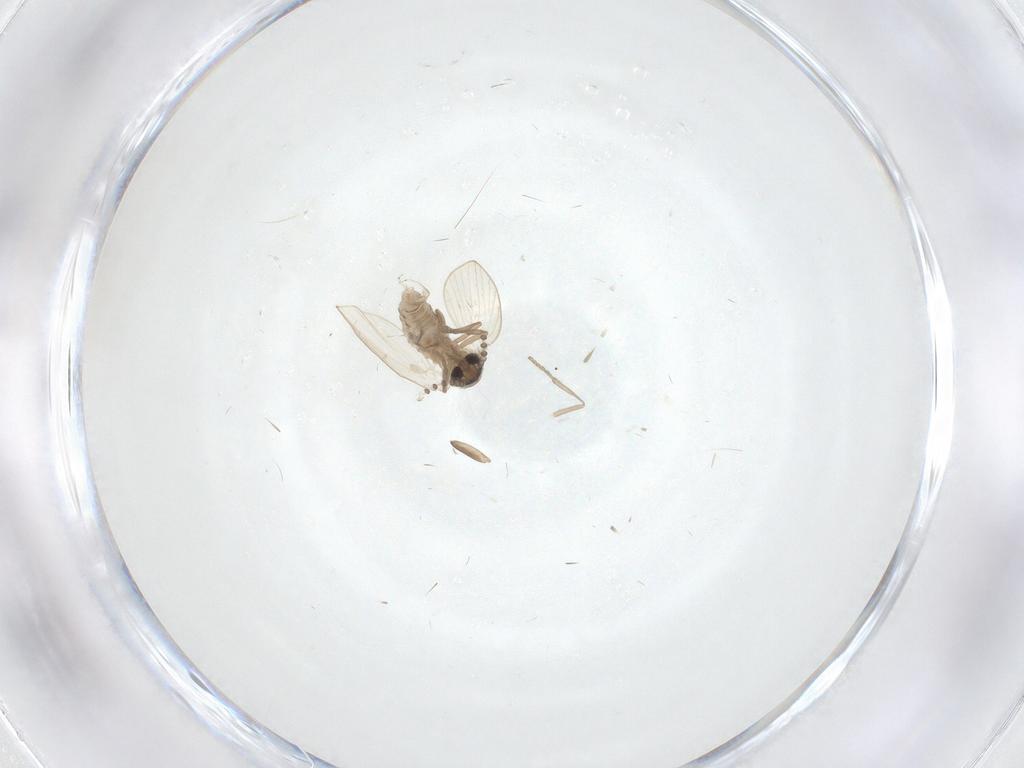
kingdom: Animalia
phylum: Arthropoda
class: Insecta
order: Diptera
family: Psychodidae
